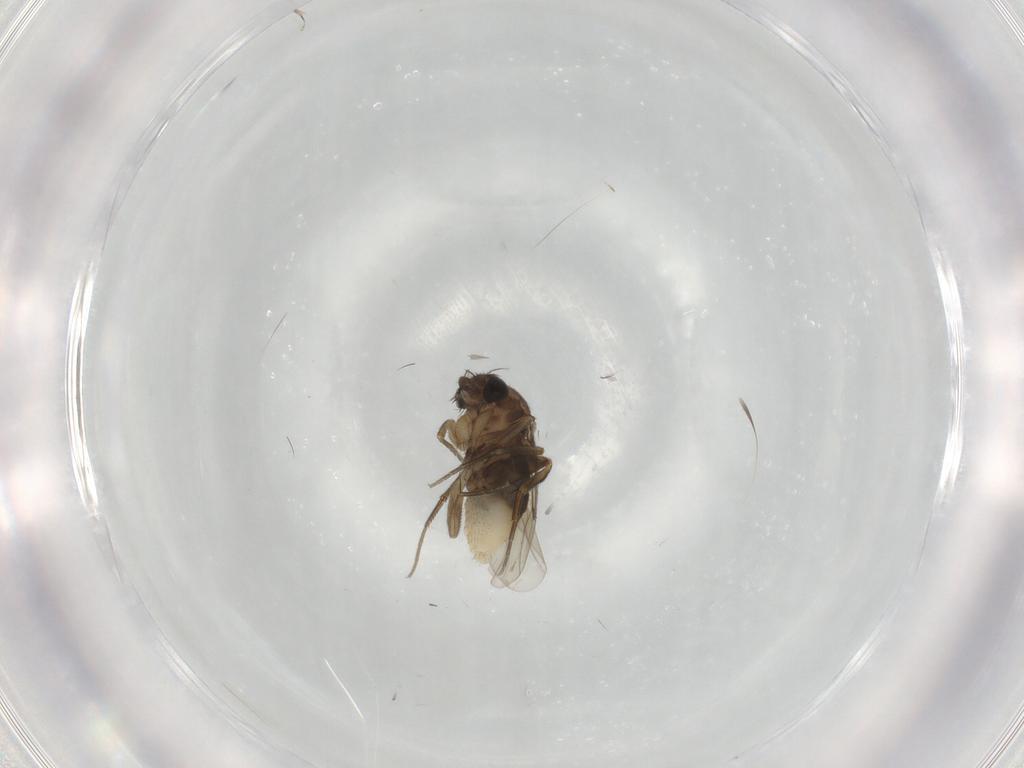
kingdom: Animalia
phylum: Arthropoda
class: Insecta
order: Diptera
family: Phoridae
